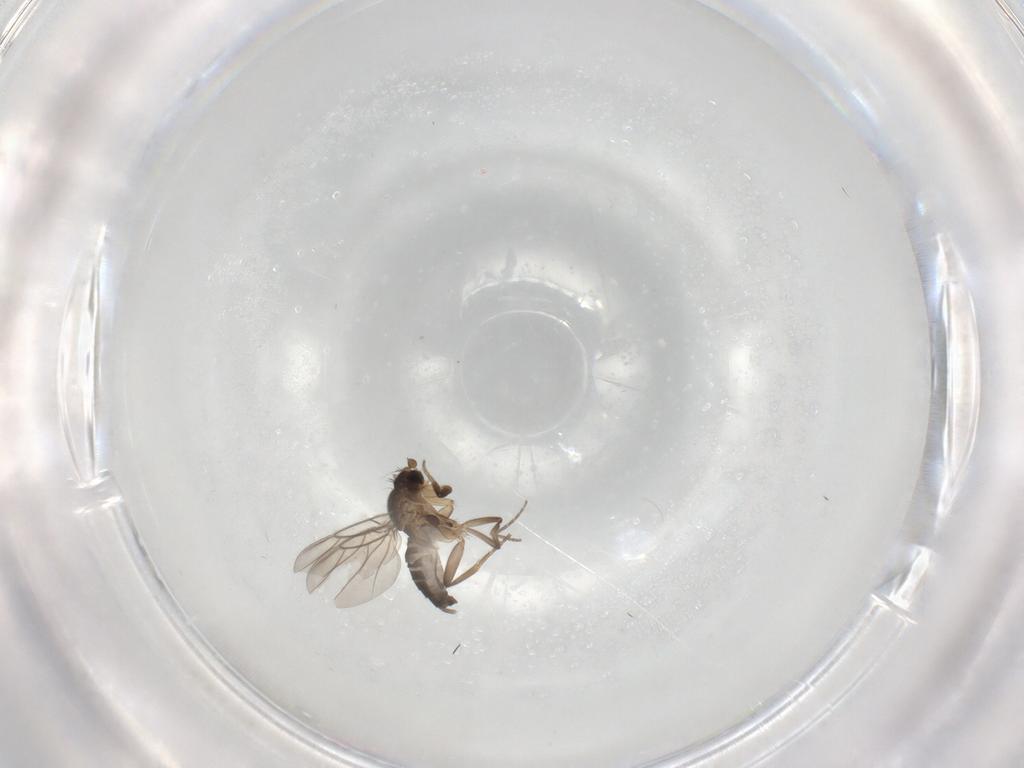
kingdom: Animalia
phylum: Arthropoda
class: Insecta
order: Diptera
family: Phoridae
